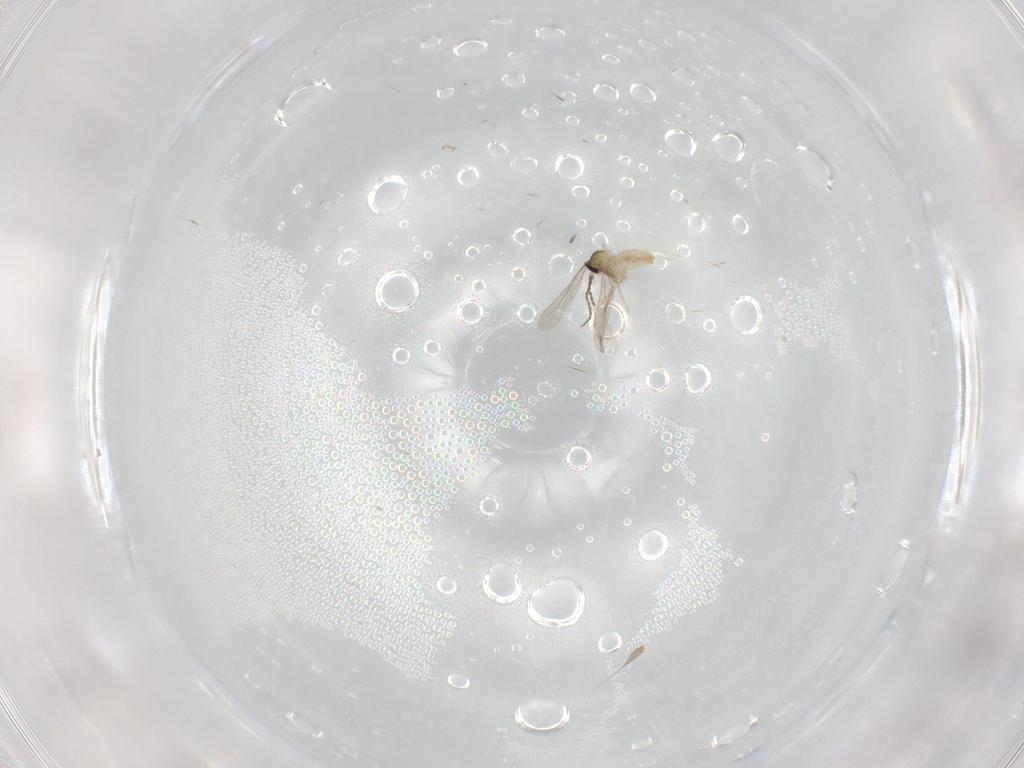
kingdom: Animalia
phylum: Arthropoda
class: Insecta
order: Diptera
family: Cecidomyiidae
